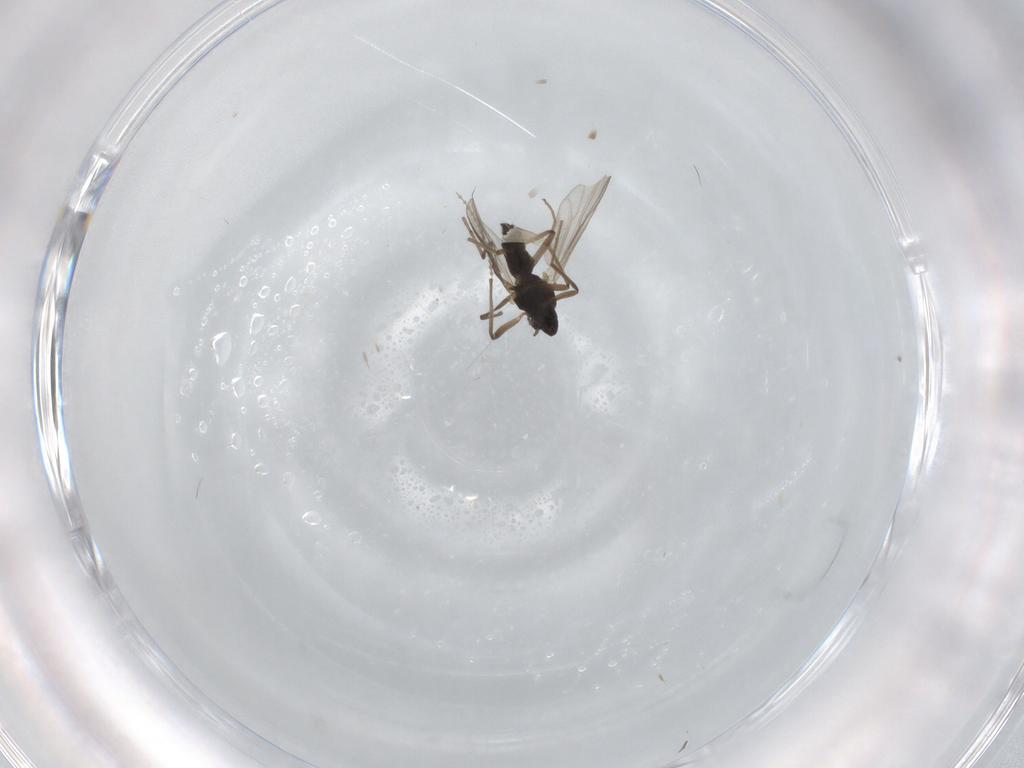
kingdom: Animalia
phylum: Arthropoda
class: Insecta
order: Diptera
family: Chironomidae
